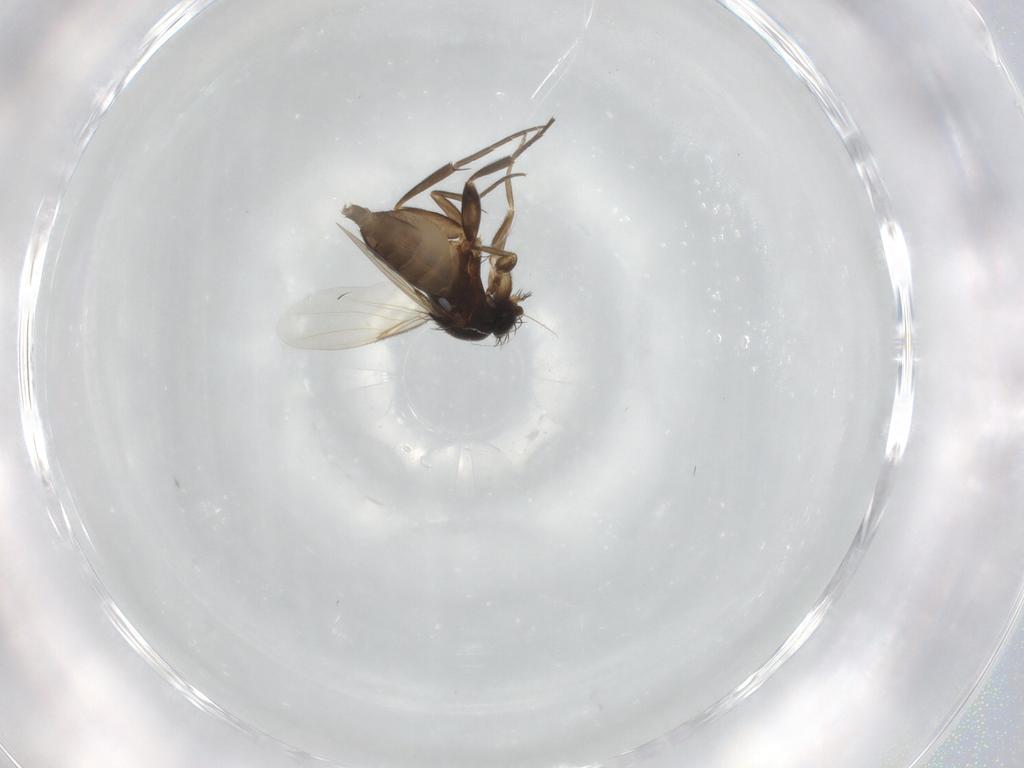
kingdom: Animalia
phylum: Arthropoda
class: Insecta
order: Diptera
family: Phoridae
